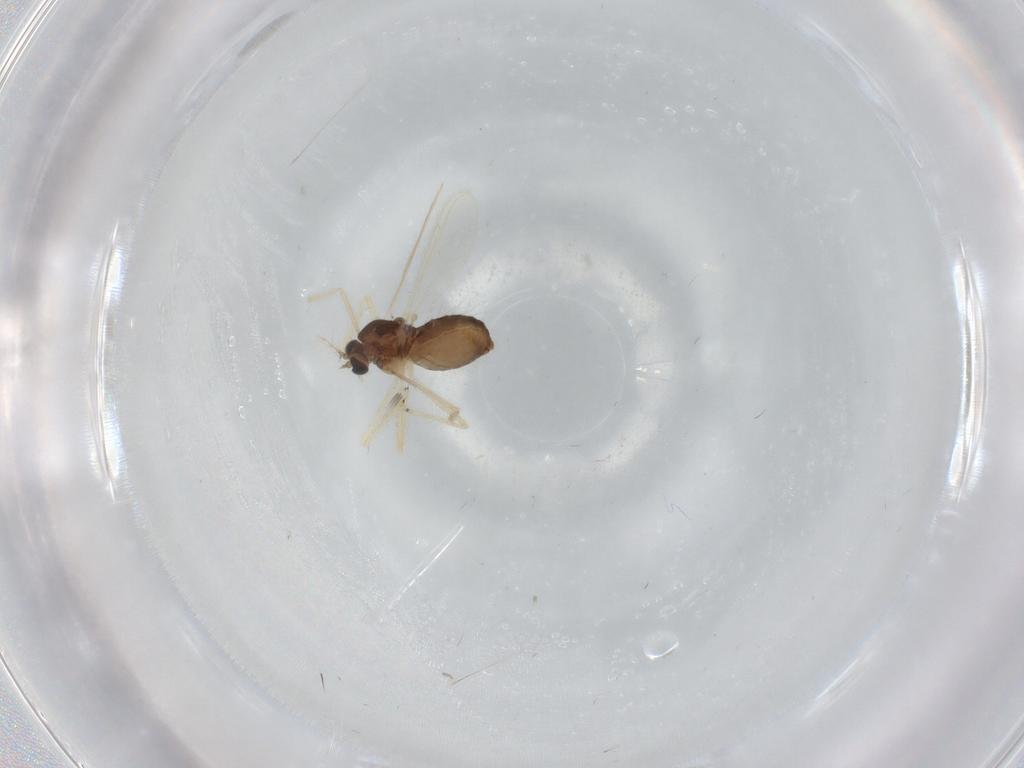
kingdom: Animalia
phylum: Arthropoda
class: Insecta
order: Diptera
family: Chironomidae
